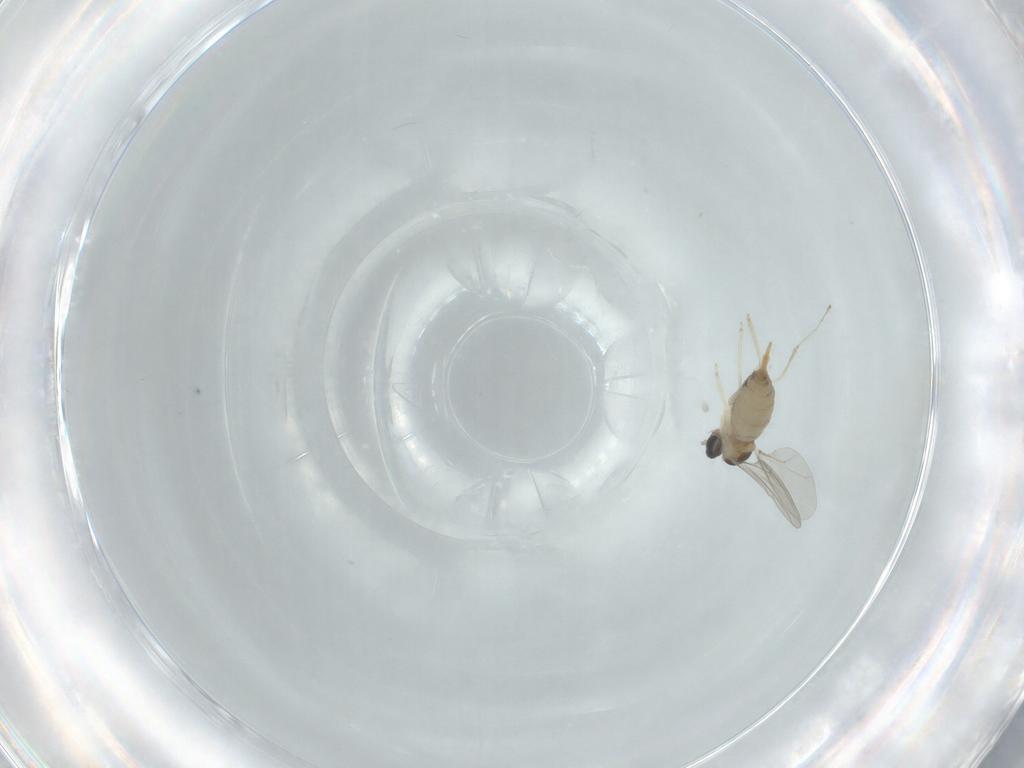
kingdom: Animalia
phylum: Arthropoda
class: Insecta
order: Diptera
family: Cecidomyiidae
